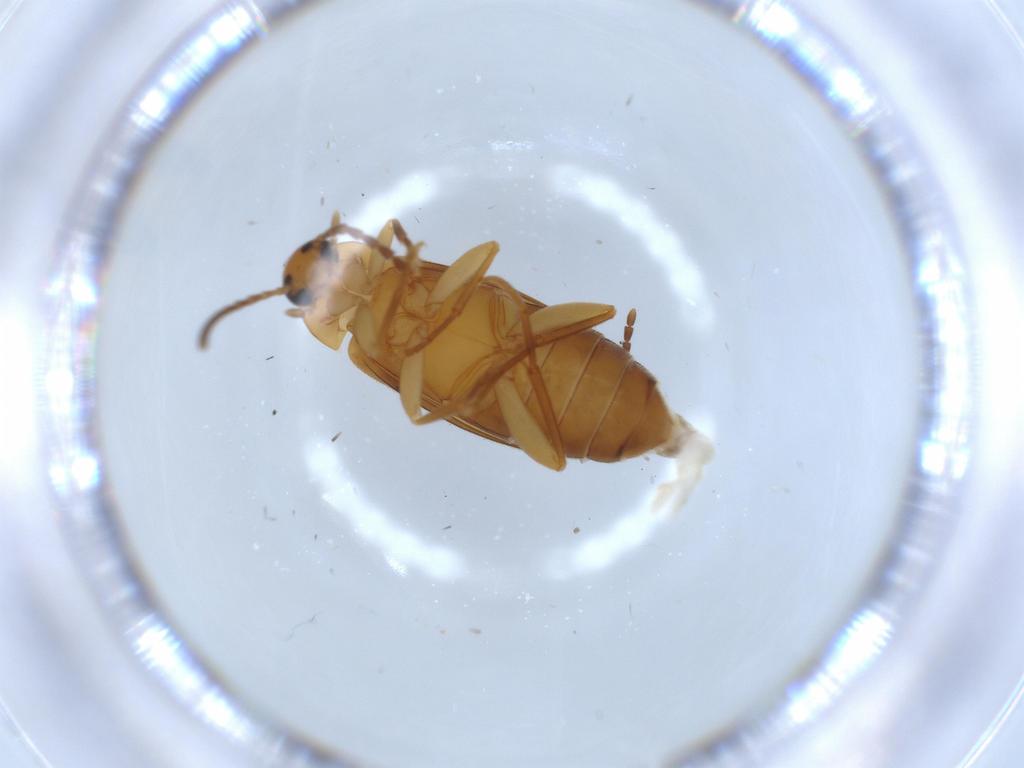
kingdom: Animalia
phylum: Arthropoda
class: Insecta
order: Coleoptera
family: Scraptiidae
